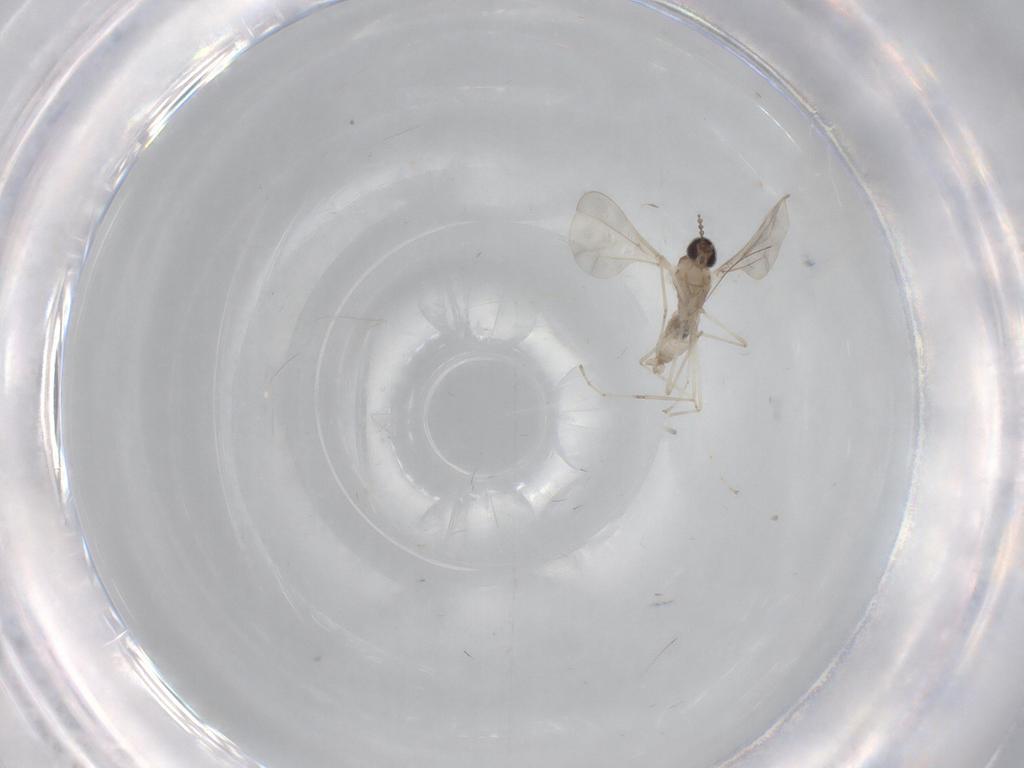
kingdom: Animalia
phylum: Arthropoda
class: Insecta
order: Diptera
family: Cecidomyiidae
